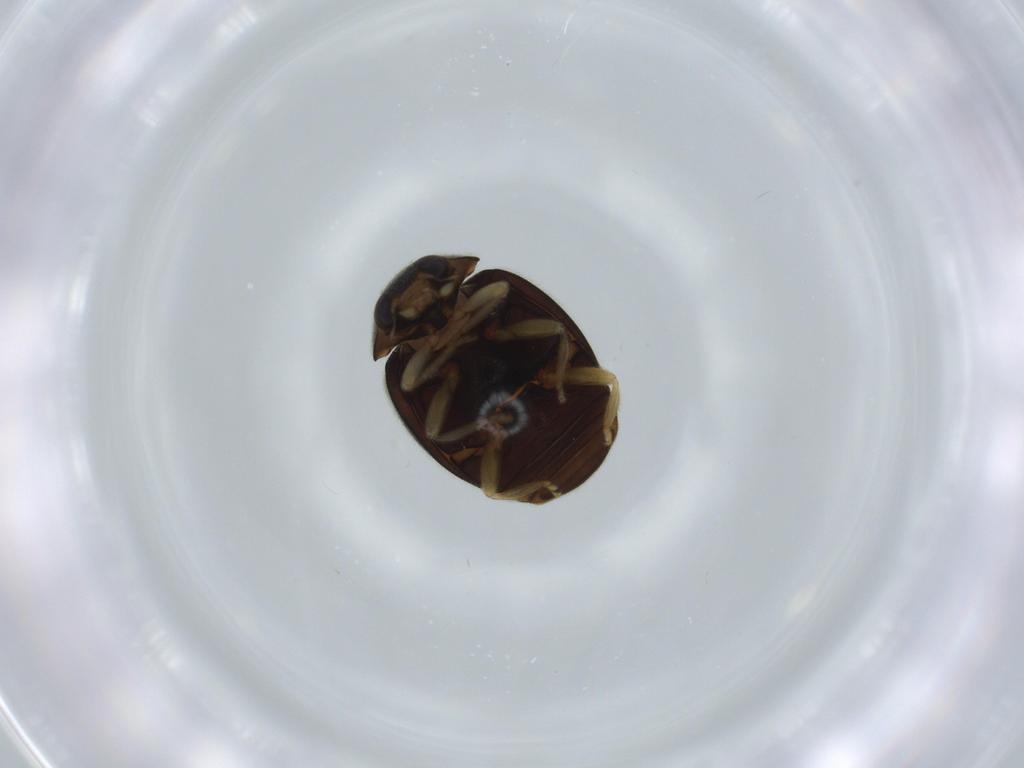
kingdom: Animalia
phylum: Arthropoda
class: Insecta
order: Coleoptera
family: Coccinellidae
